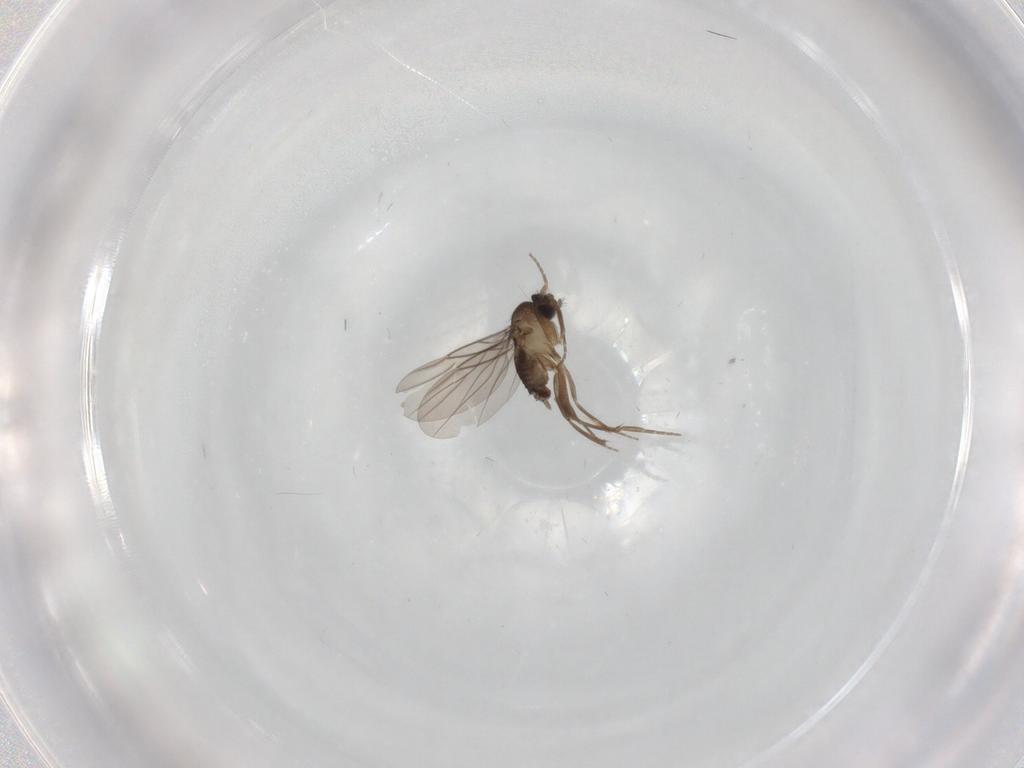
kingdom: Animalia
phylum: Arthropoda
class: Insecta
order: Diptera
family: Phoridae
